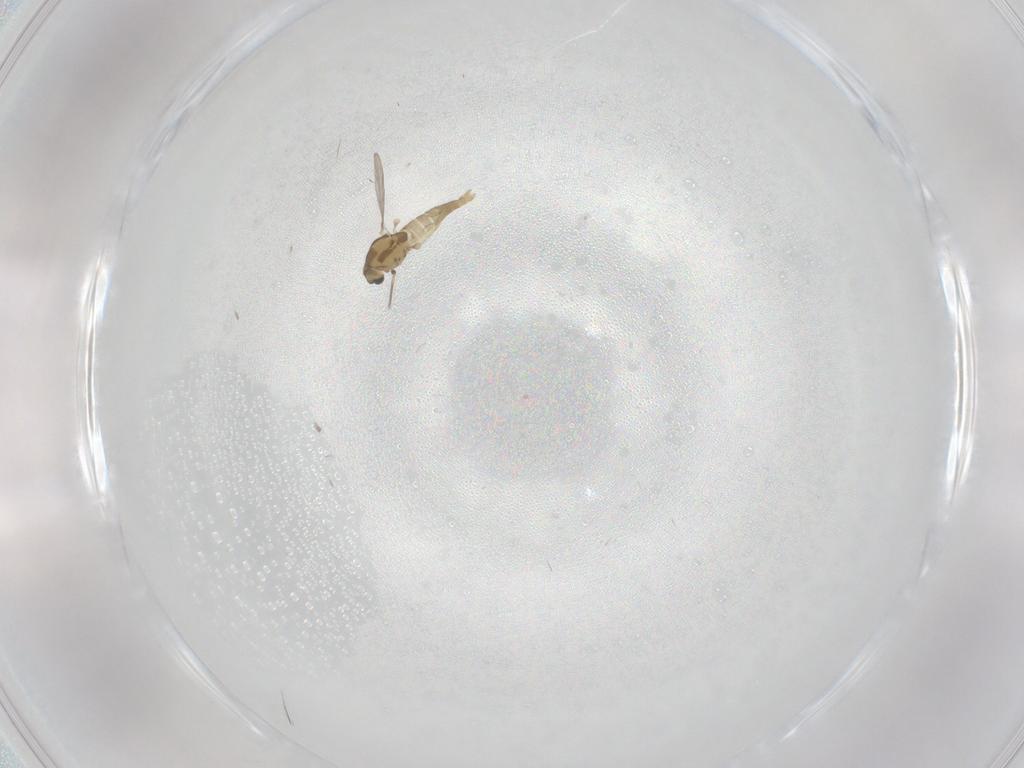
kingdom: Animalia
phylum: Arthropoda
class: Insecta
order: Diptera
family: Chironomidae
